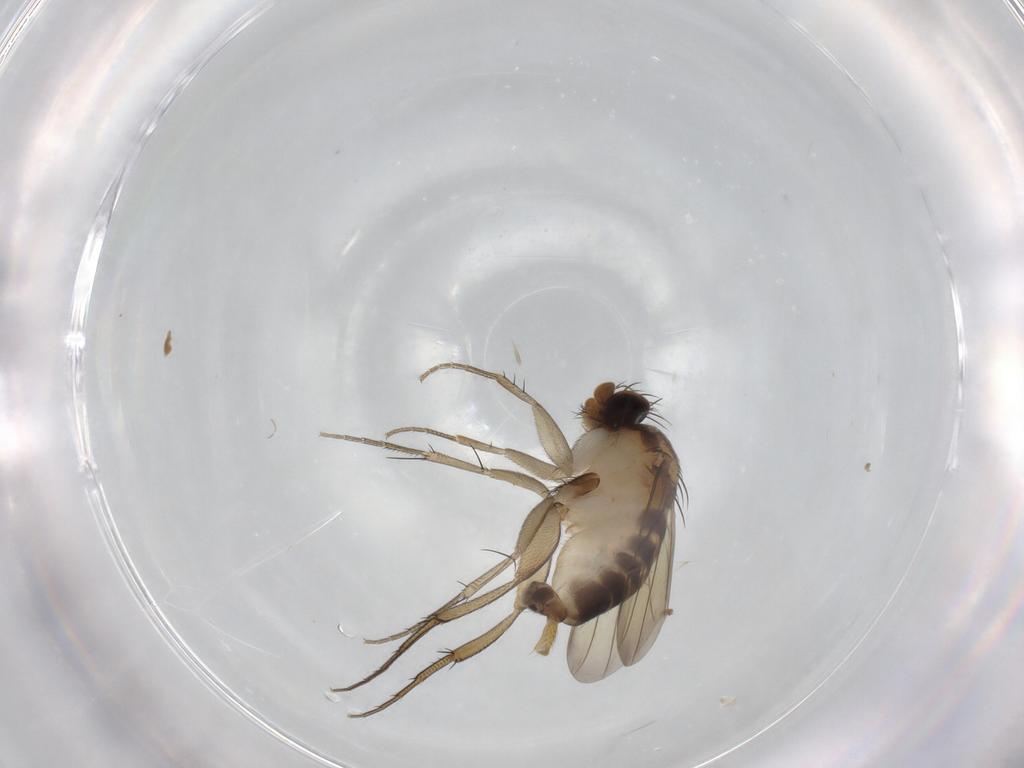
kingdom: Animalia
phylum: Arthropoda
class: Insecta
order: Diptera
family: Phoridae
